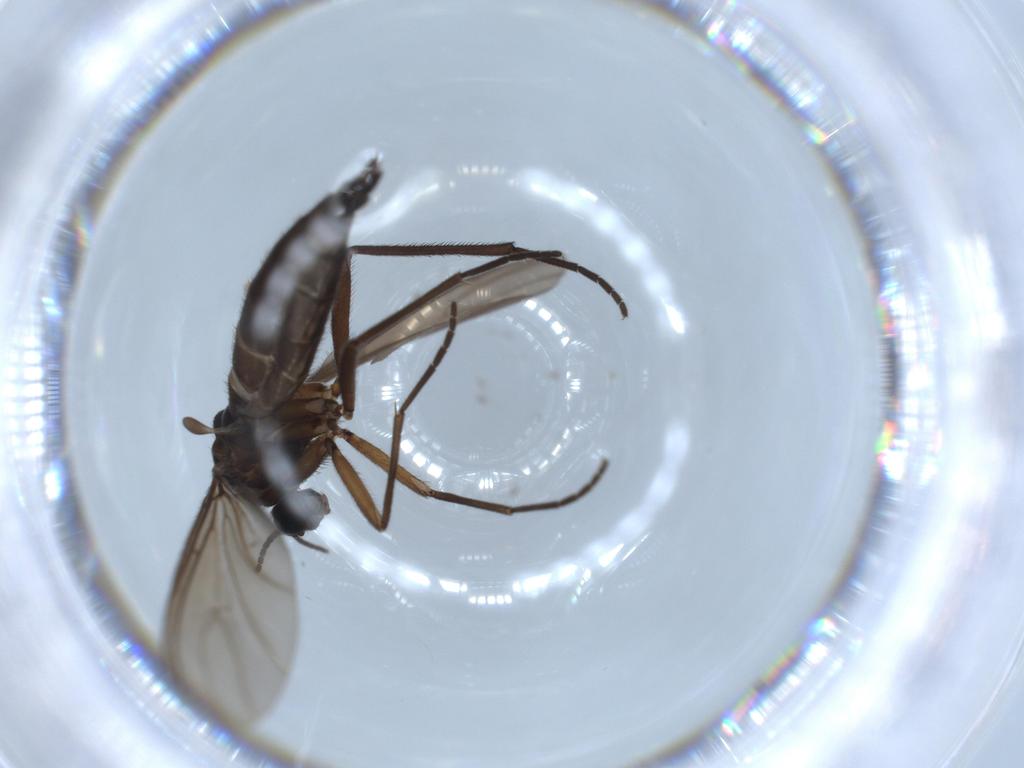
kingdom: Animalia
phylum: Arthropoda
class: Insecta
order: Diptera
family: Sciaridae
